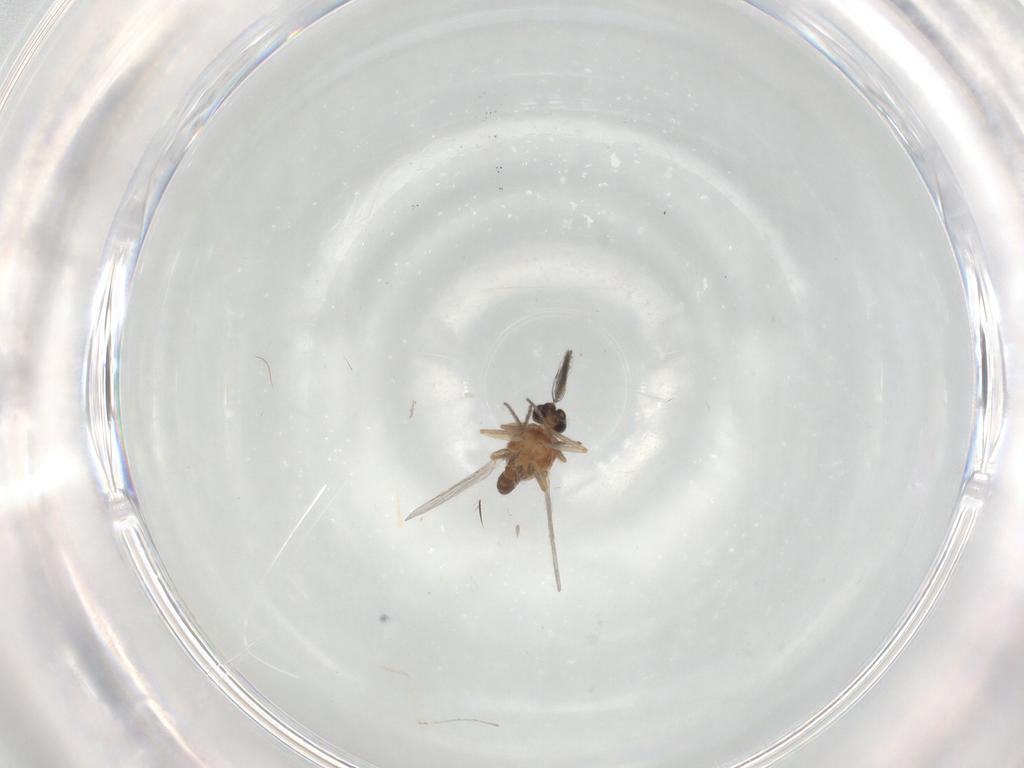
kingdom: Animalia
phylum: Arthropoda
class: Insecta
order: Diptera
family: Ceratopogonidae
